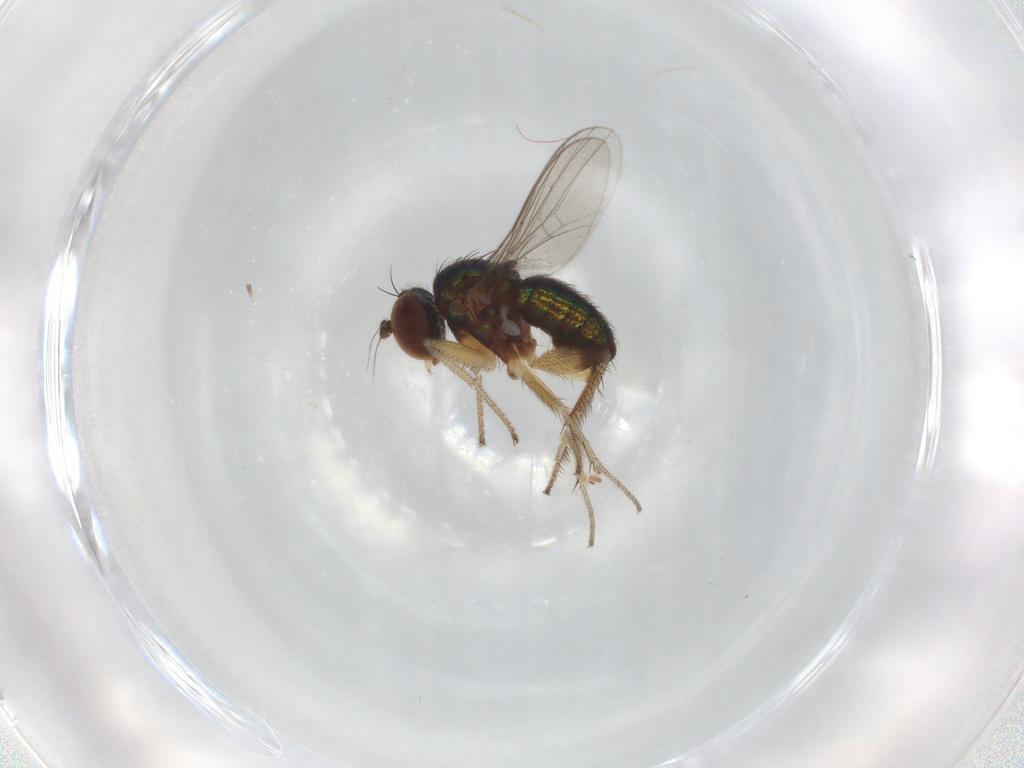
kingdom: Animalia
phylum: Arthropoda
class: Insecta
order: Diptera
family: Dolichopodidae
